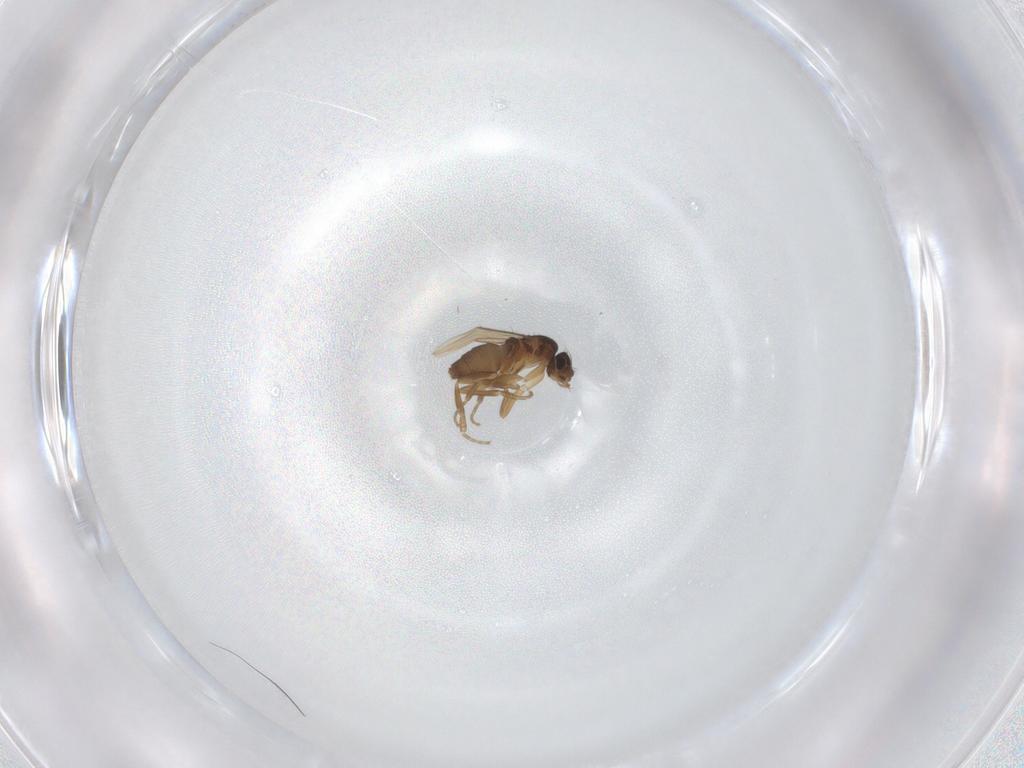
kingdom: Animalia
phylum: Arthropoda
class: Insecta
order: Diptera
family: Phoridae
